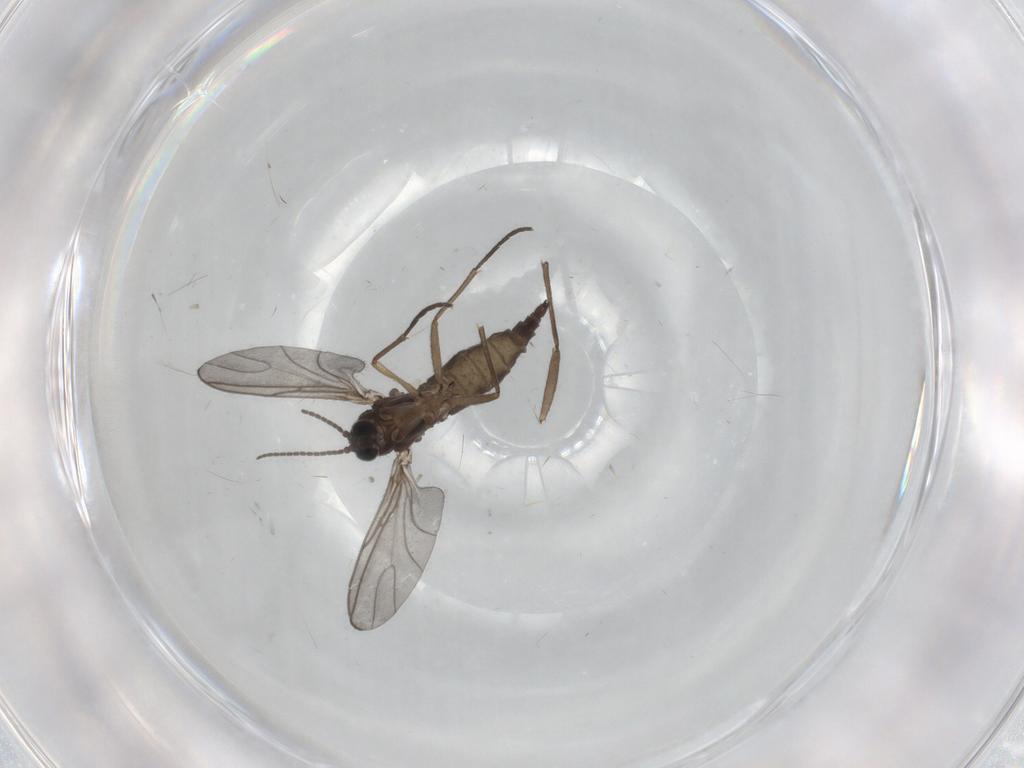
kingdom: Animalia
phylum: Arthropoda
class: Insecta
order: Diptera
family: Sciaridae
